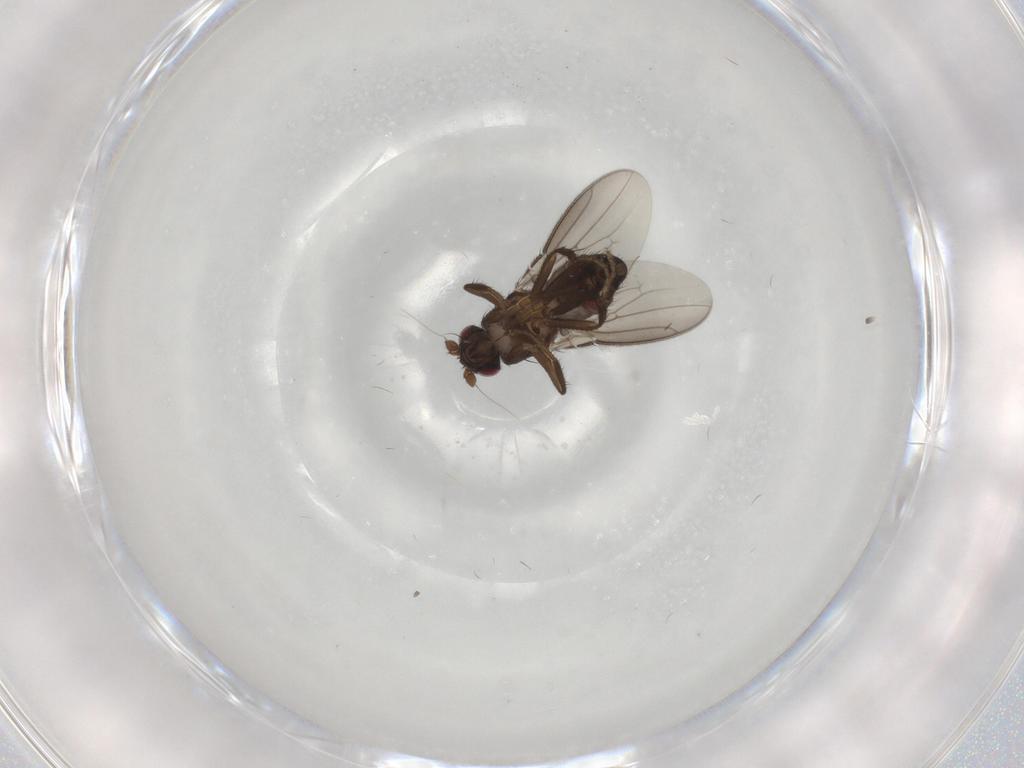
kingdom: Animalia
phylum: Arthropoda
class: Insecta
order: Diptera
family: Sphaeroceridae
